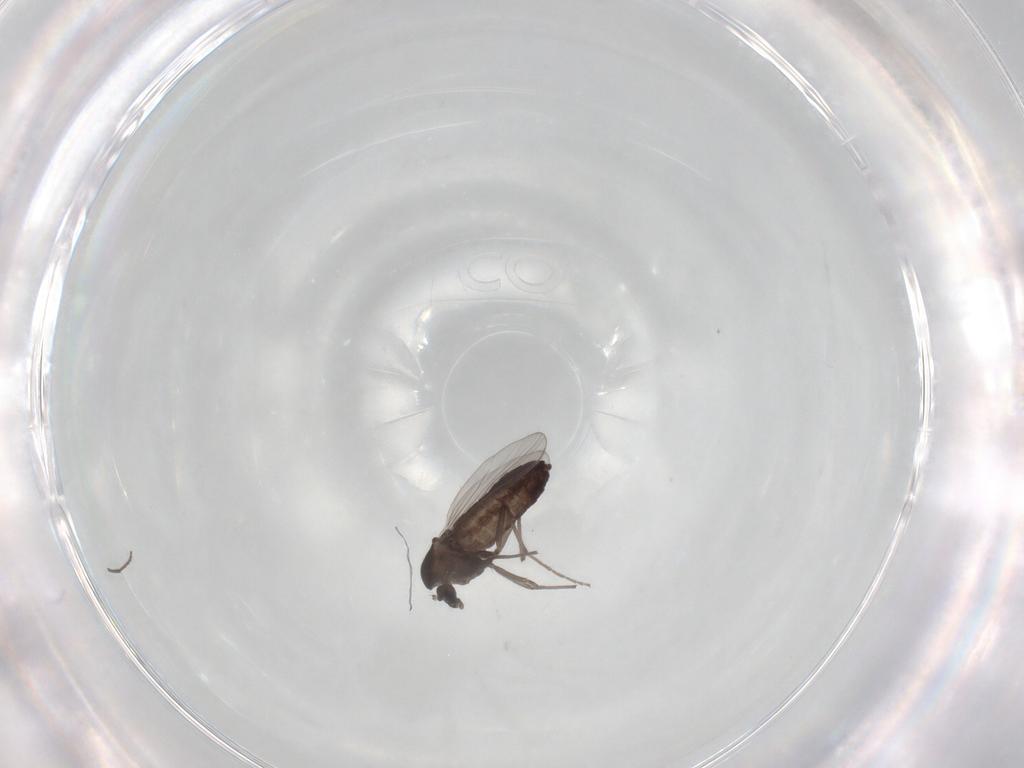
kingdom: Animalia
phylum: Arthropoda
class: Insecta
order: Diptera
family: Chironomidae
